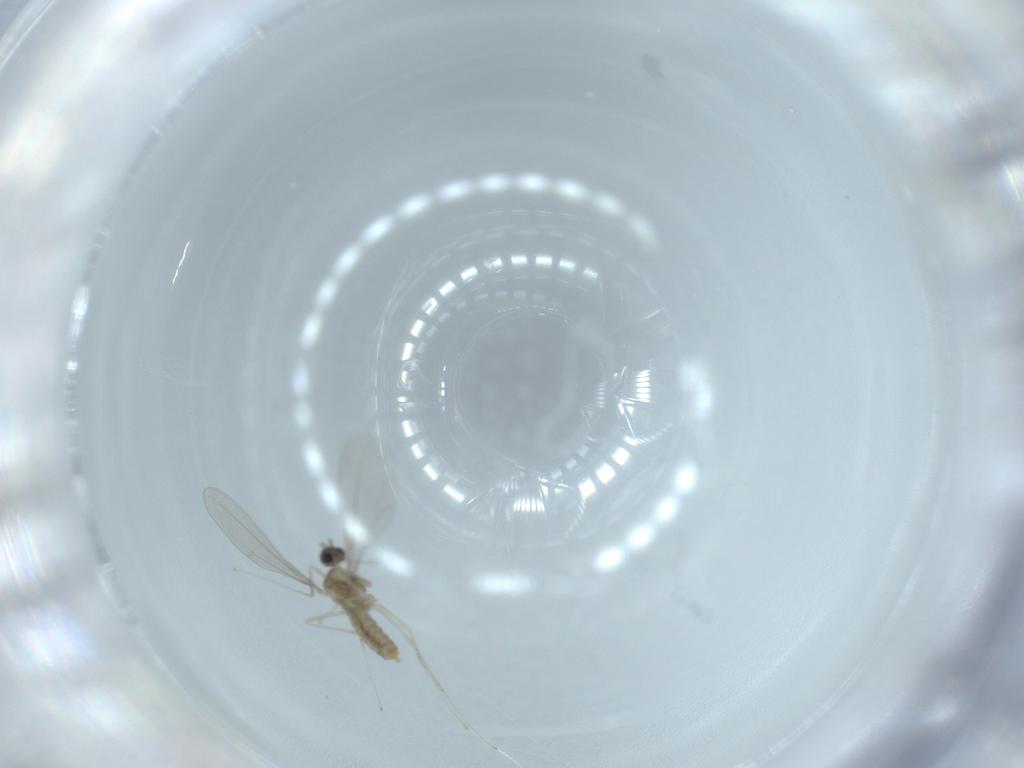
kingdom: Animalia
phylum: Arthropoda
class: Insecta
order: Diptera
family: Cecidomyiidae
